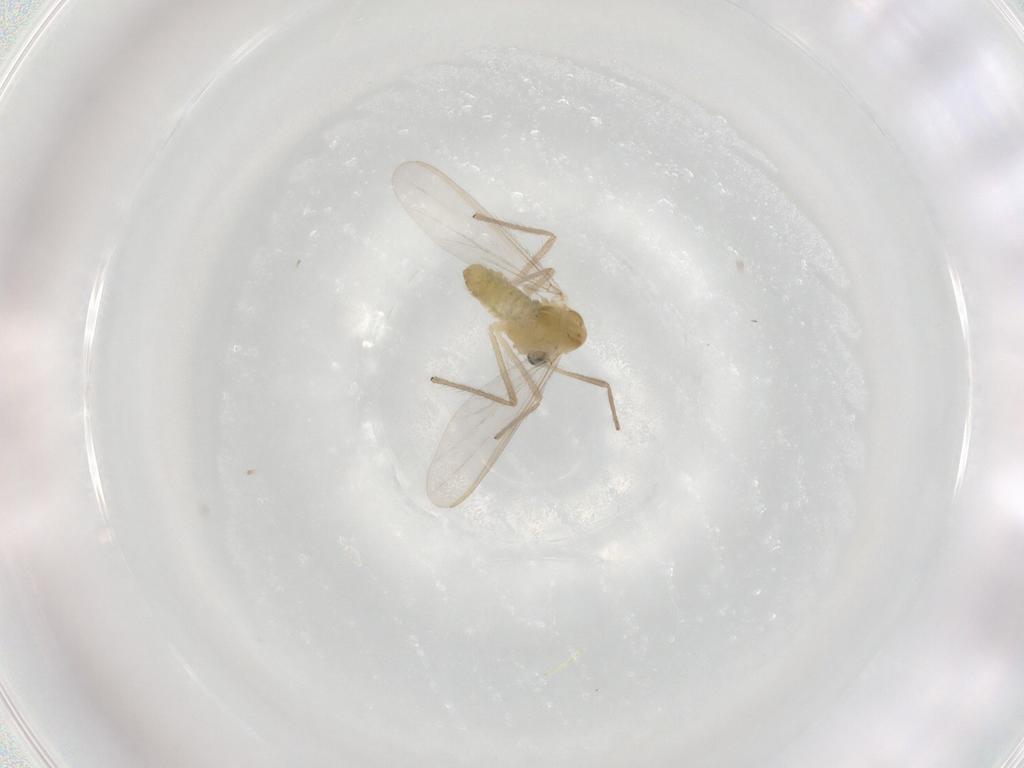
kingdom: Animalia
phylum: Arthropoda
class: Insecta
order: Diptera
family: Chironomidae
